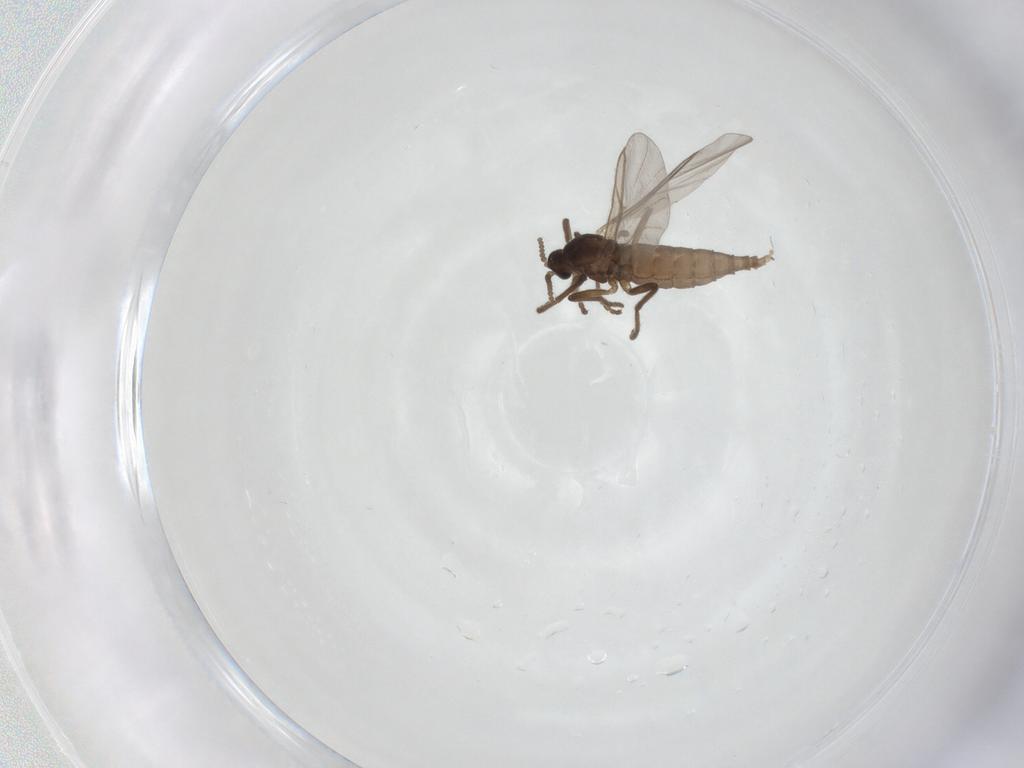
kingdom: Animalia
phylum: Arthropoda
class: Insecta
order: Diptera
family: Cecidomyiidae
